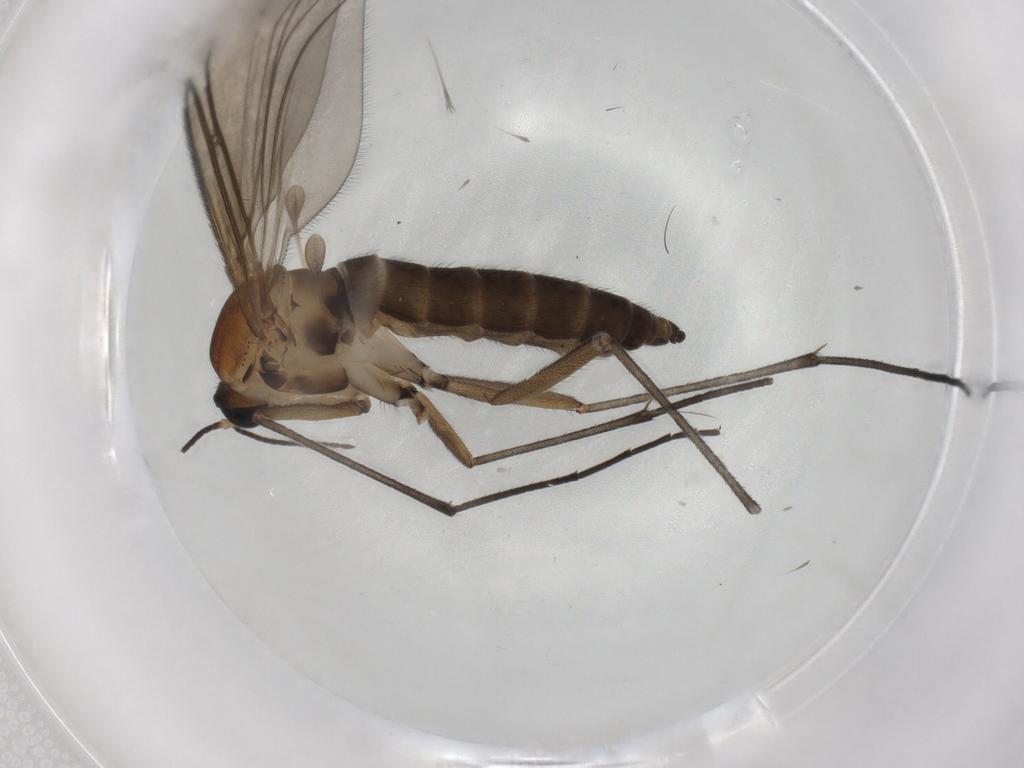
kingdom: Animalia
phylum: Arthropoda
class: Insecta
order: Diptera
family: Sciaridae
